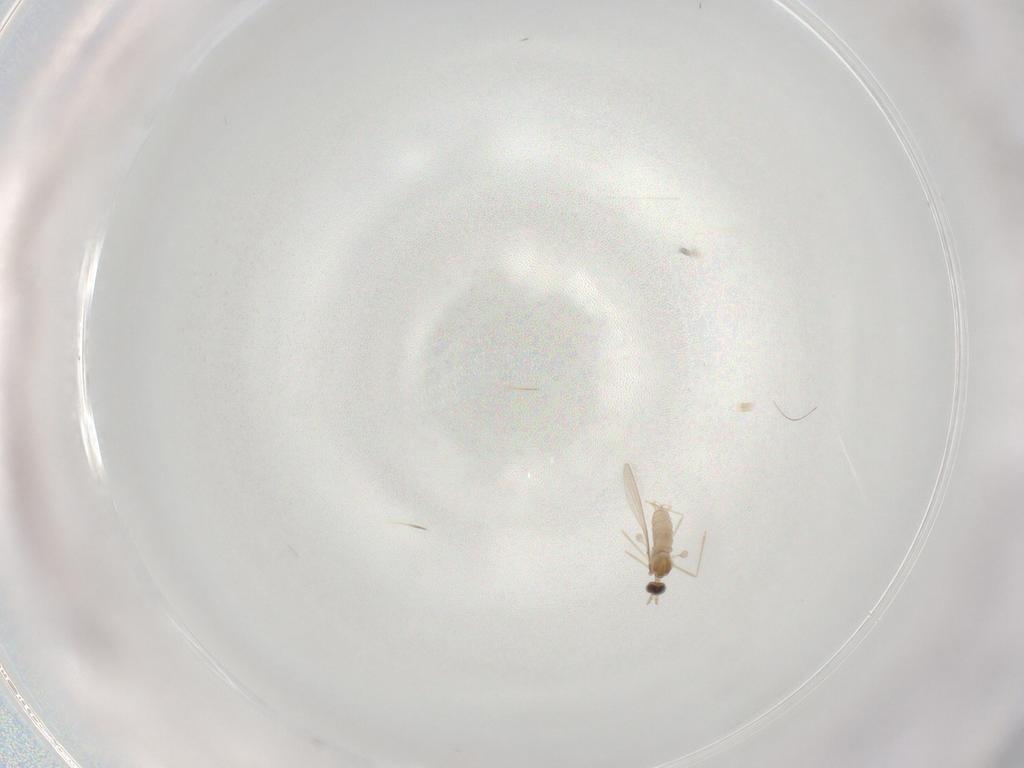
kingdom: Animalia
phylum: Arthropoda
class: Insecta
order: Diptera
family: Cecidomyiidae
